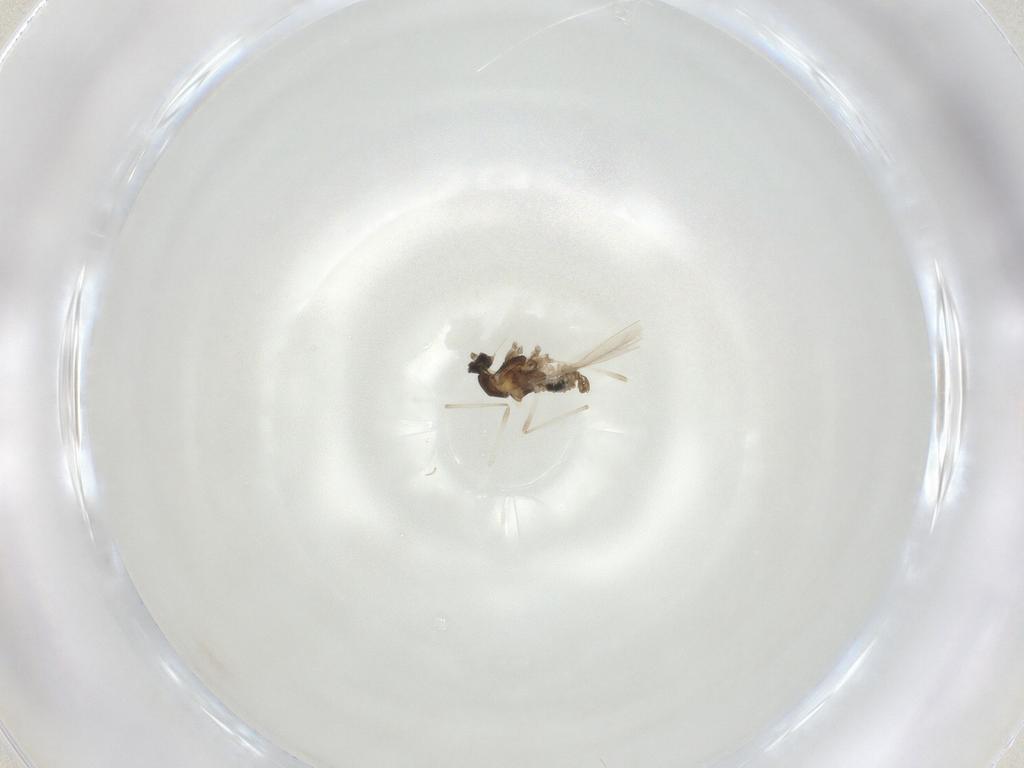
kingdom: Animalia
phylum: Arthropoda
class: Insecta
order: Diptera
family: Cecidomyiidae
